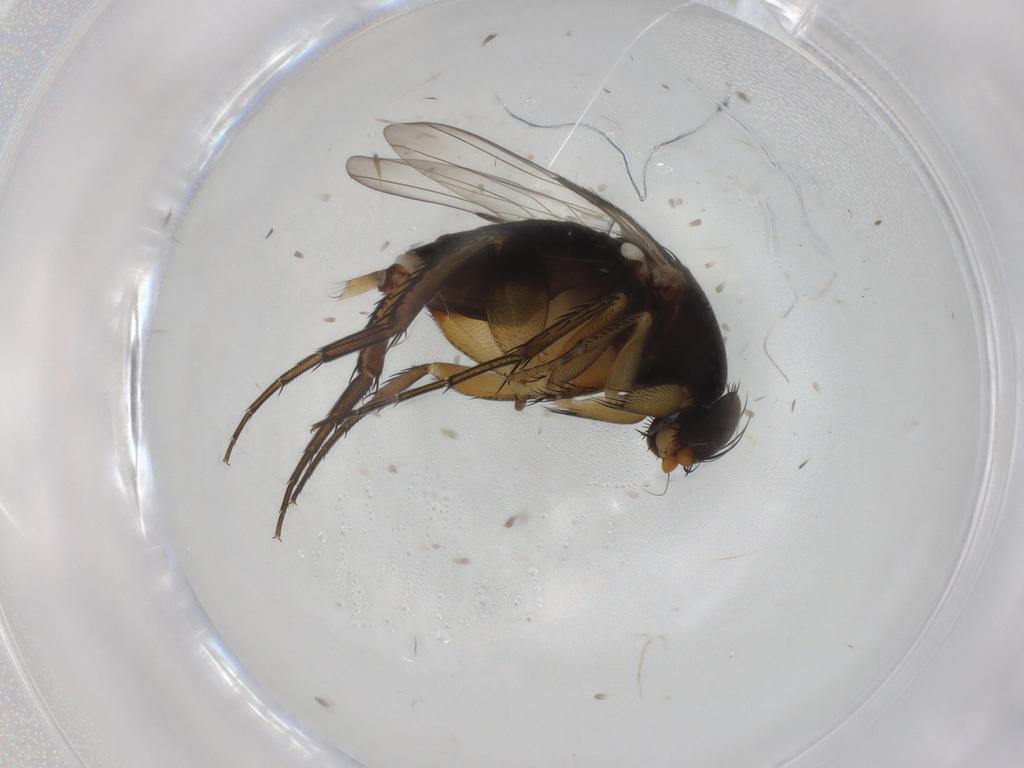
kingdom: Animalia
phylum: Arthropoda
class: Insecta
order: Diptera
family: Phoridae
